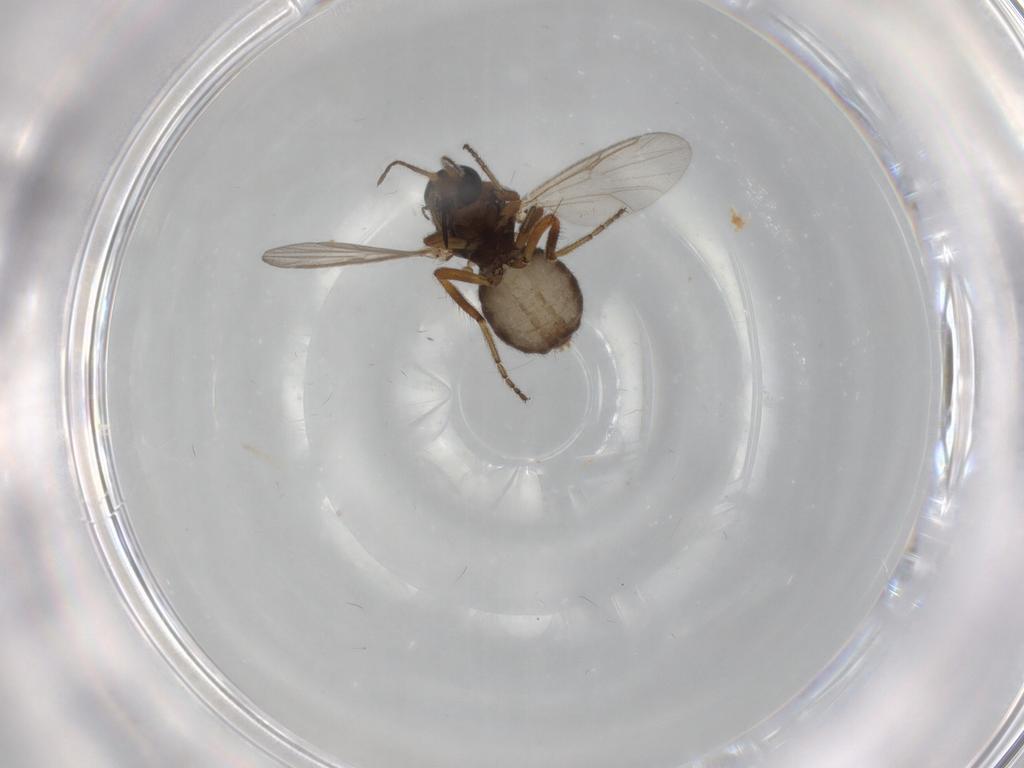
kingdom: Animalia
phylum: Arthropoda
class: Insecta
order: Diptera
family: Ceratopogonidae
